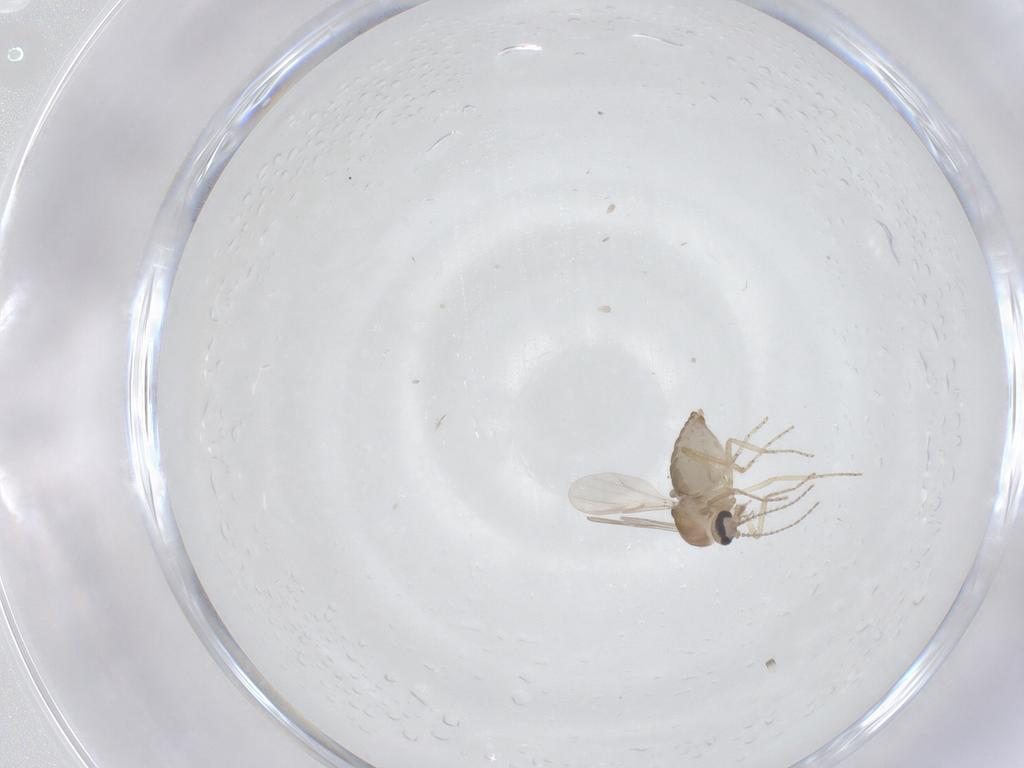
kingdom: Animalia
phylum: Arthropoda
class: Insecta
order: Diptera
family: Ceratopogonidae
